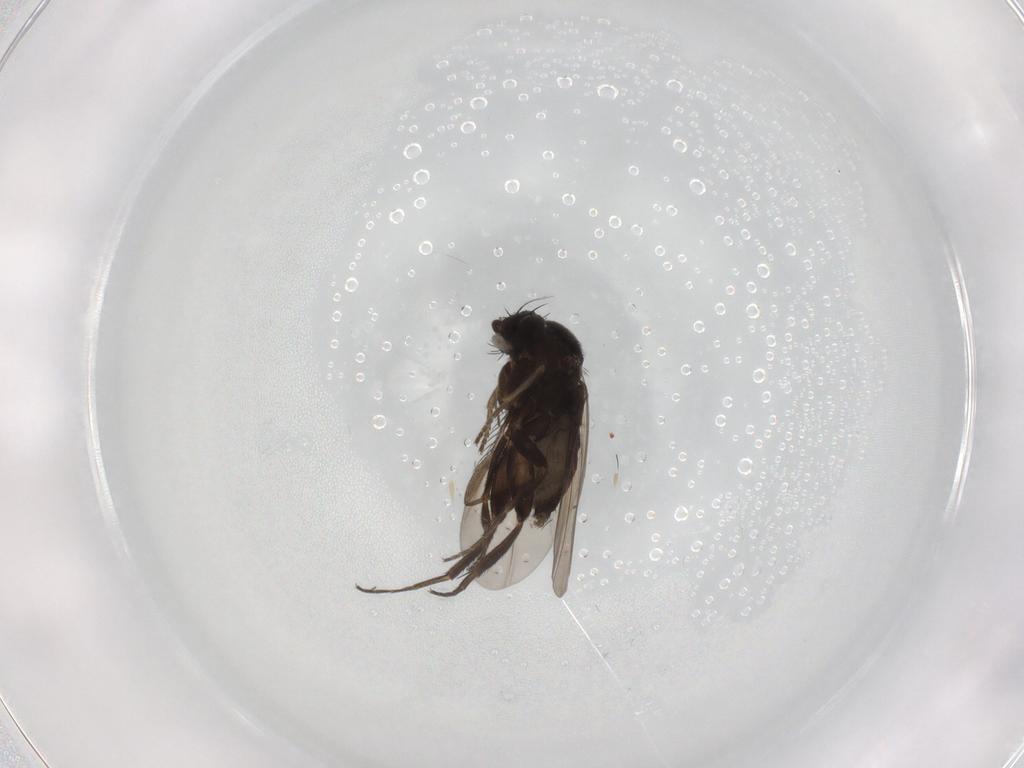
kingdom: Animalia
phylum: Arthropoda
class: Insecta
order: Diptera
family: Phoridae
